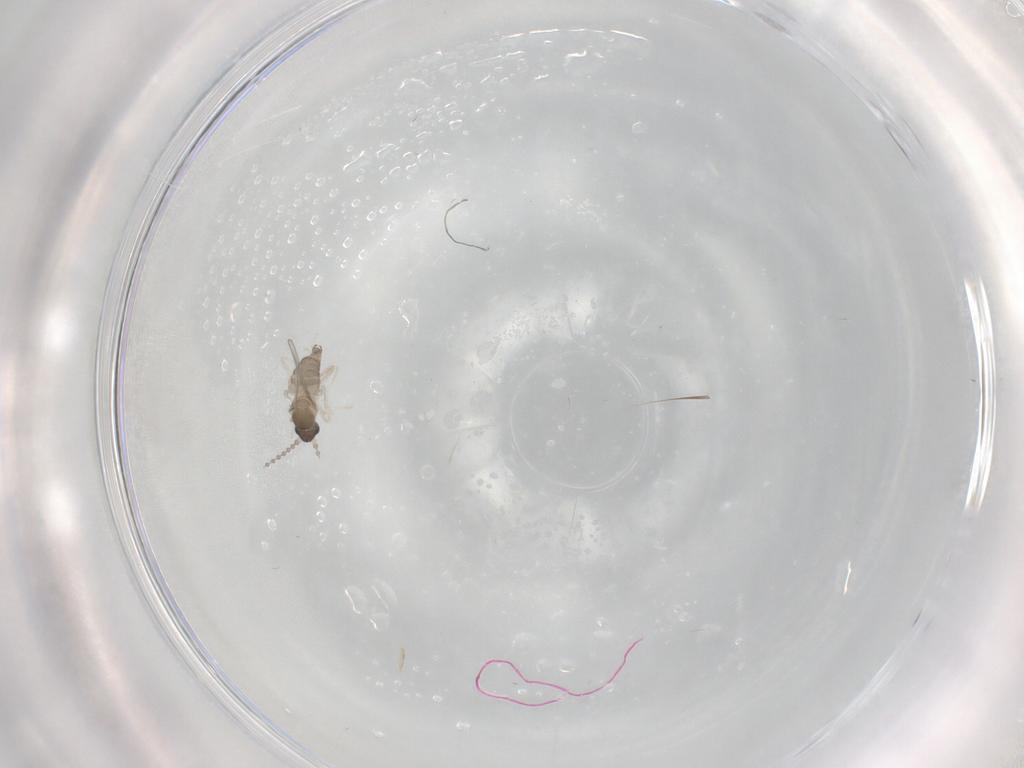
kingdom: Animalia
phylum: Arthropoda
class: Insecta
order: Diptera
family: Cecidomyiidae
